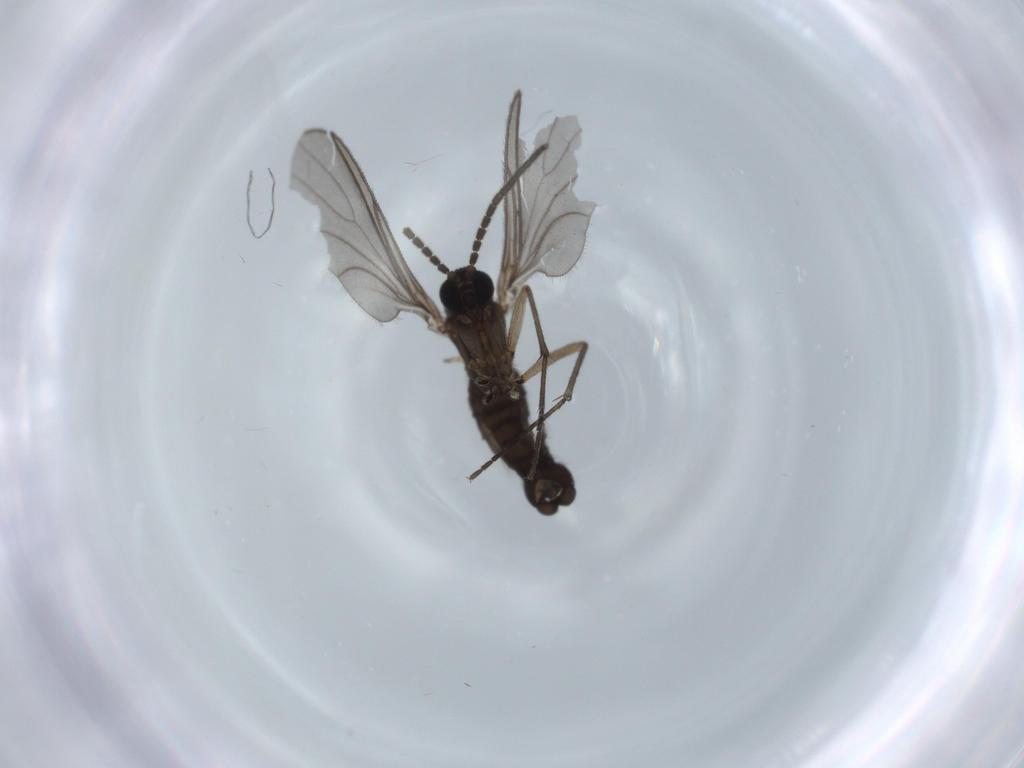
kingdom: Animalia
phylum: Arthropoda
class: Insecta
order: Diptera
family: Sciaridae
